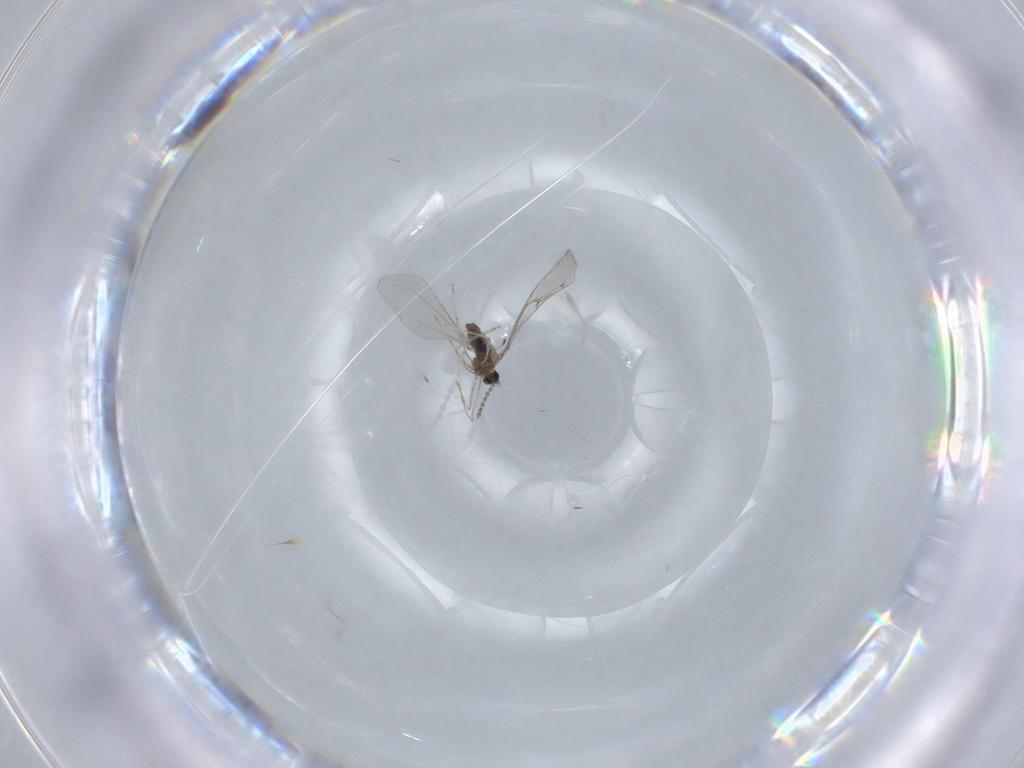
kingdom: Animalia
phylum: Arthropoda
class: Insecta
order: Diptera
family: Cecidomyiidae
